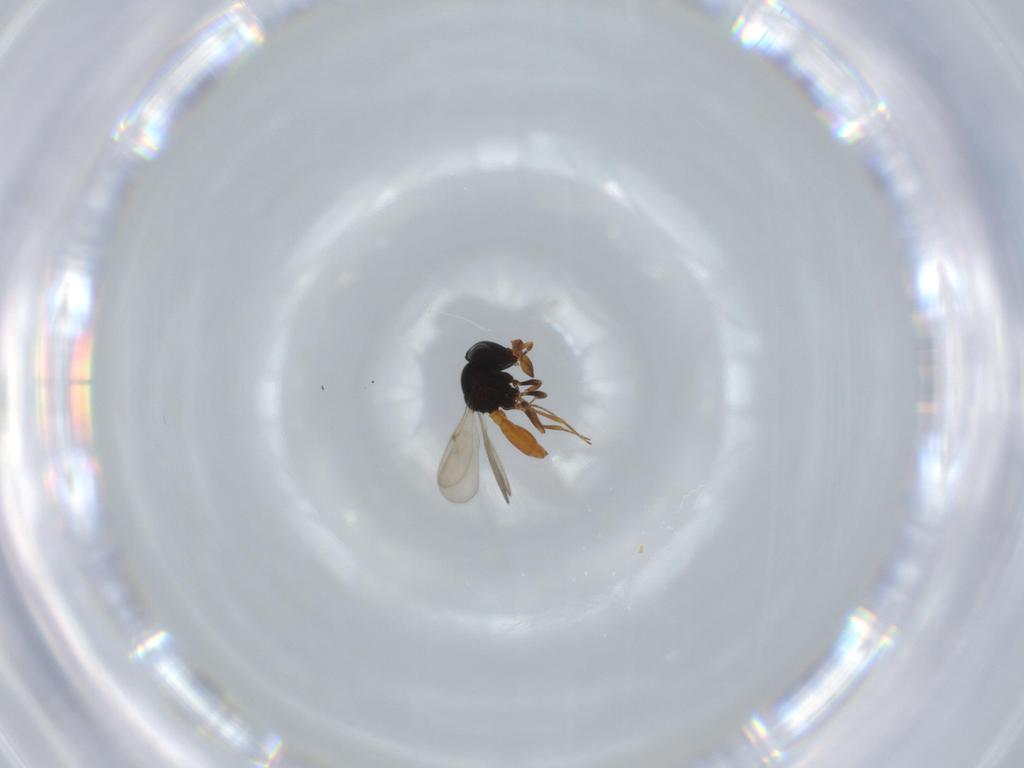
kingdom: Animalia
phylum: Arthropoda
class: Insecta
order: Hymenoptera
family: Scelionidae
